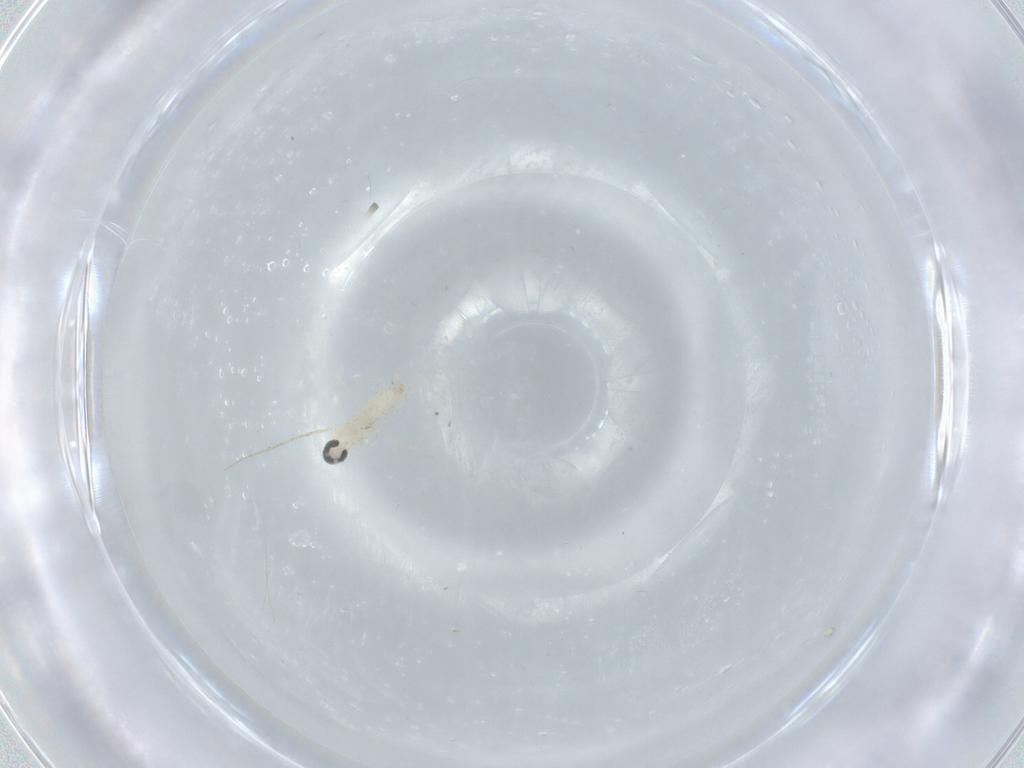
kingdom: Animalia
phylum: Arthropoda
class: Insecta
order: Diptera
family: Cecidomyiidae
